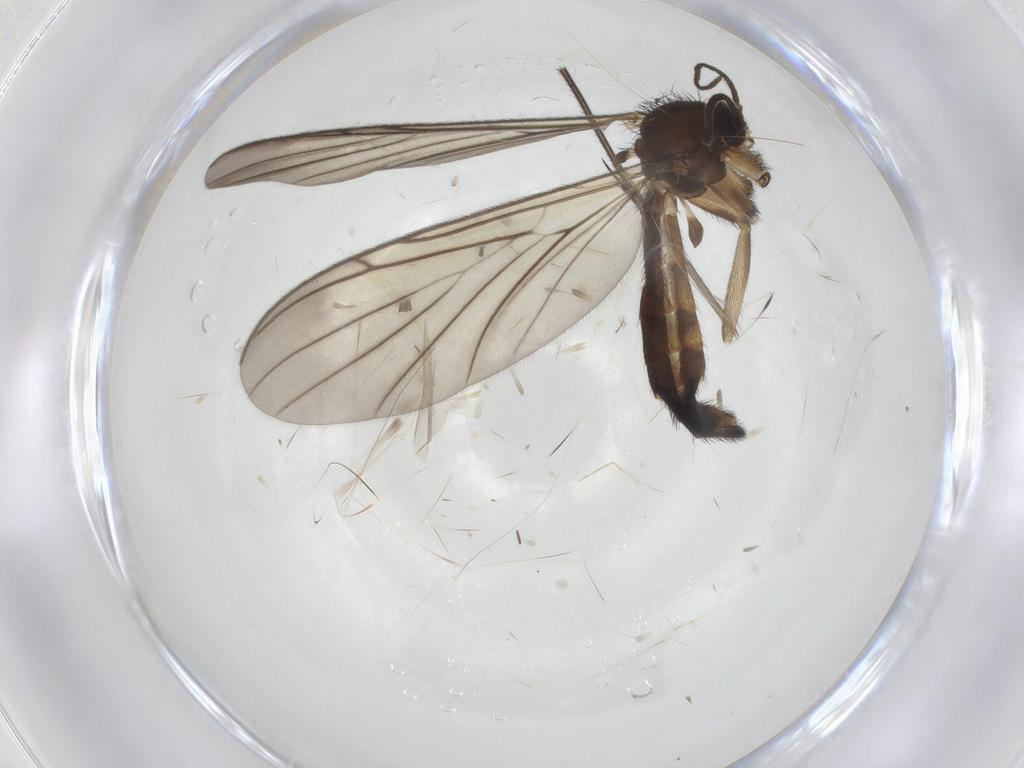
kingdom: Animalia
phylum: Arthropoda
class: Insecta
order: Diptera
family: Keroplatidae
